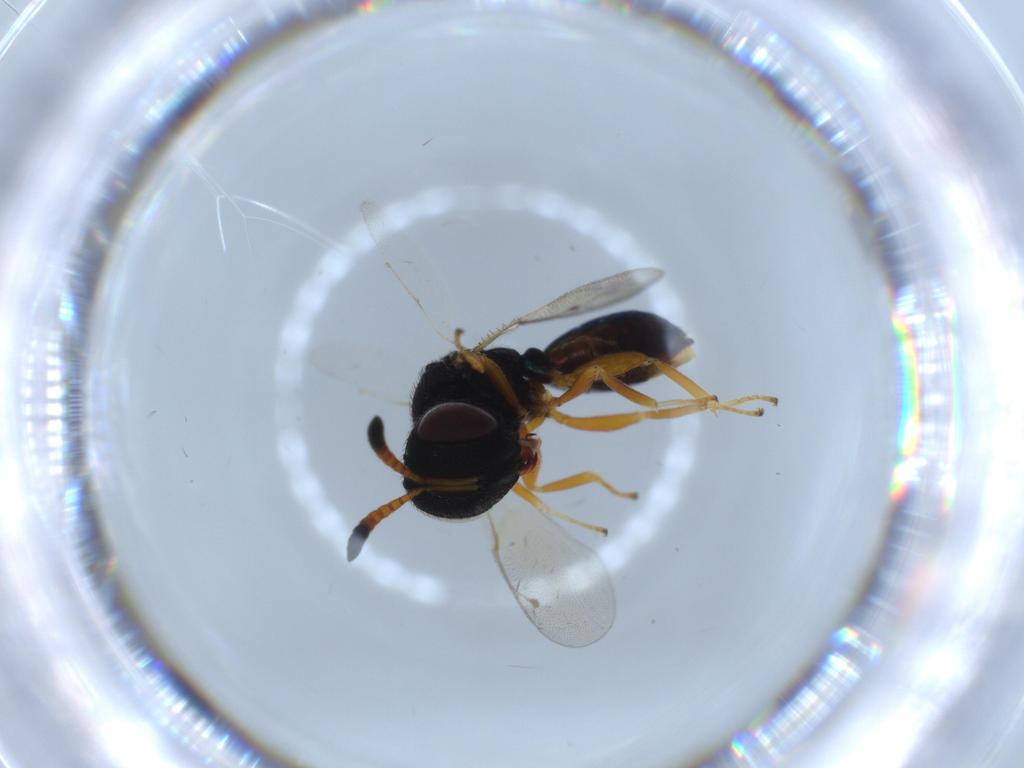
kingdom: Animalia
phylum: Arthropoda
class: Insecta
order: Hymenoptera
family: Agaonidae
